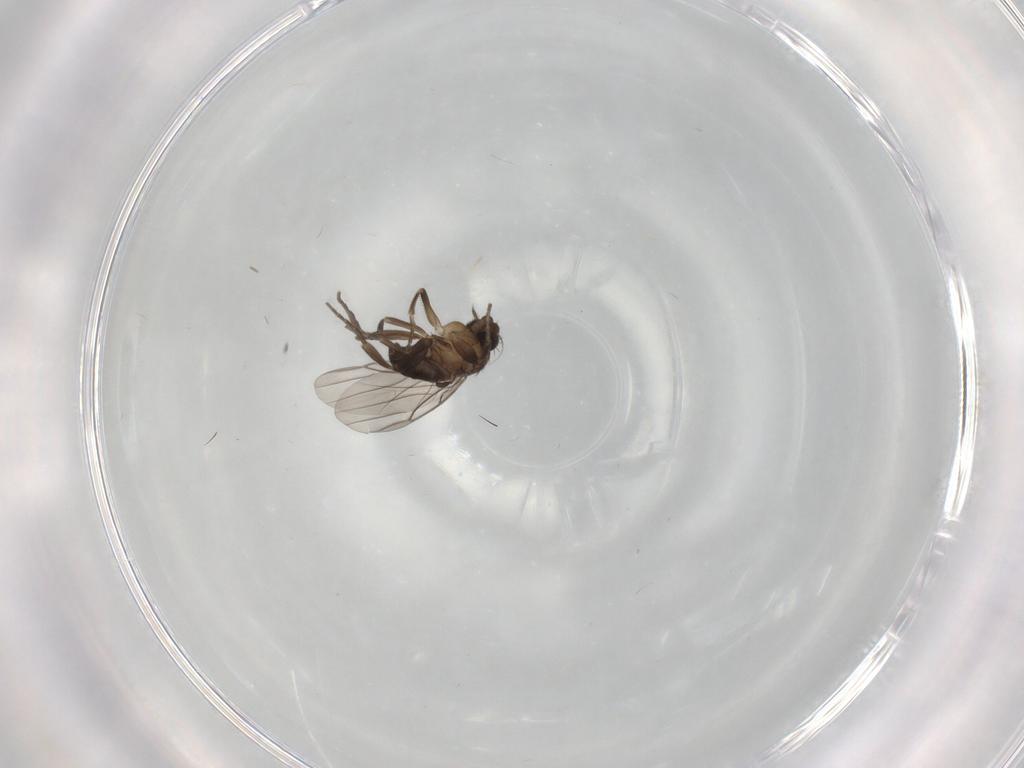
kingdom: Animalia
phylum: Arthropoda
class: Insecta
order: Diptera
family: Phoridae
